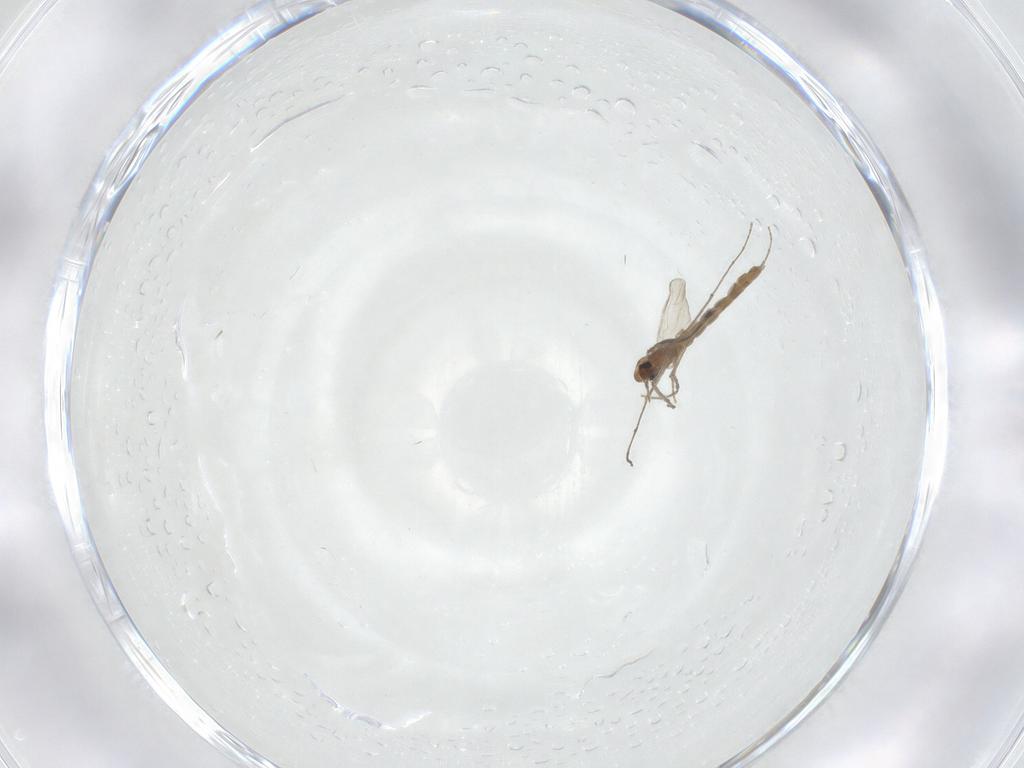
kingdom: Animalia
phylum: Arthropoda
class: Insecta
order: Diptera
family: Chironomidae
